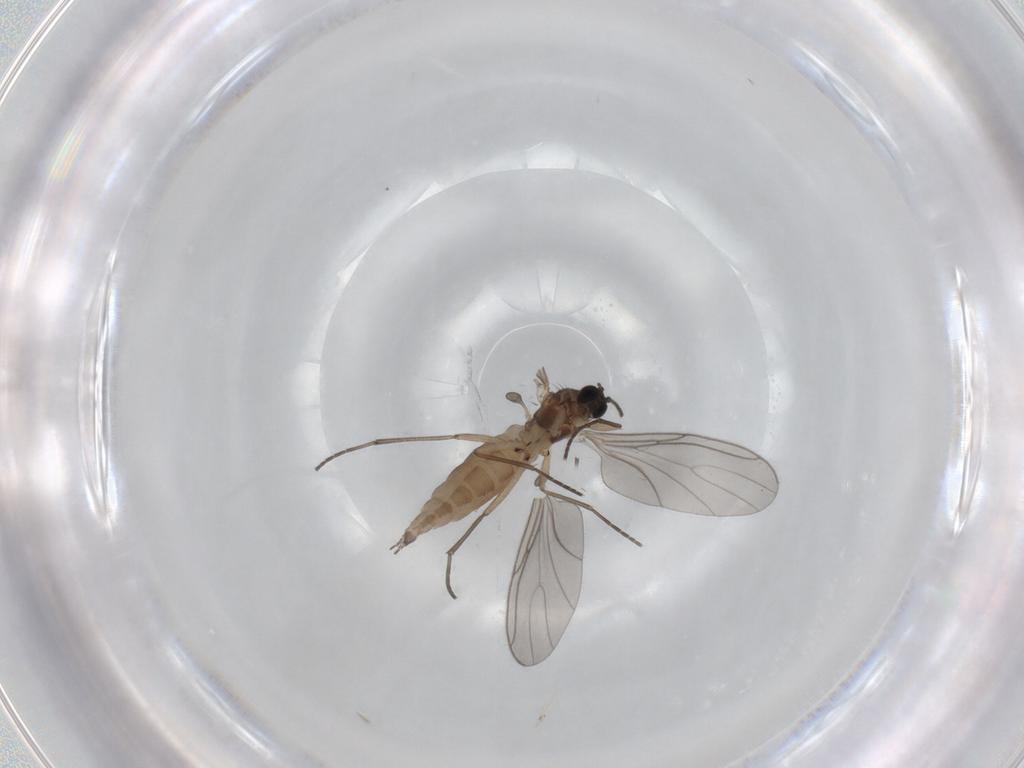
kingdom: Animalia
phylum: Arthropoda
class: Insecta
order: Diptera
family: Sciaridae
